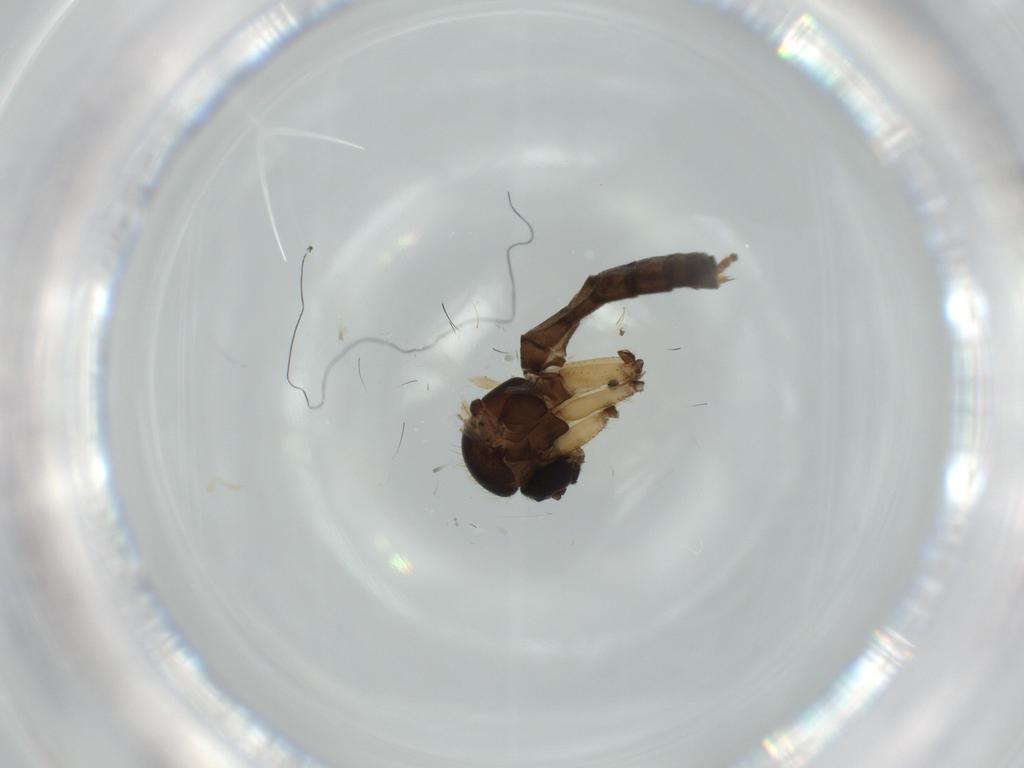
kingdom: Animalia
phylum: Arthropoda
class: Insecta
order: Diptera
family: Cecidomyiidae
